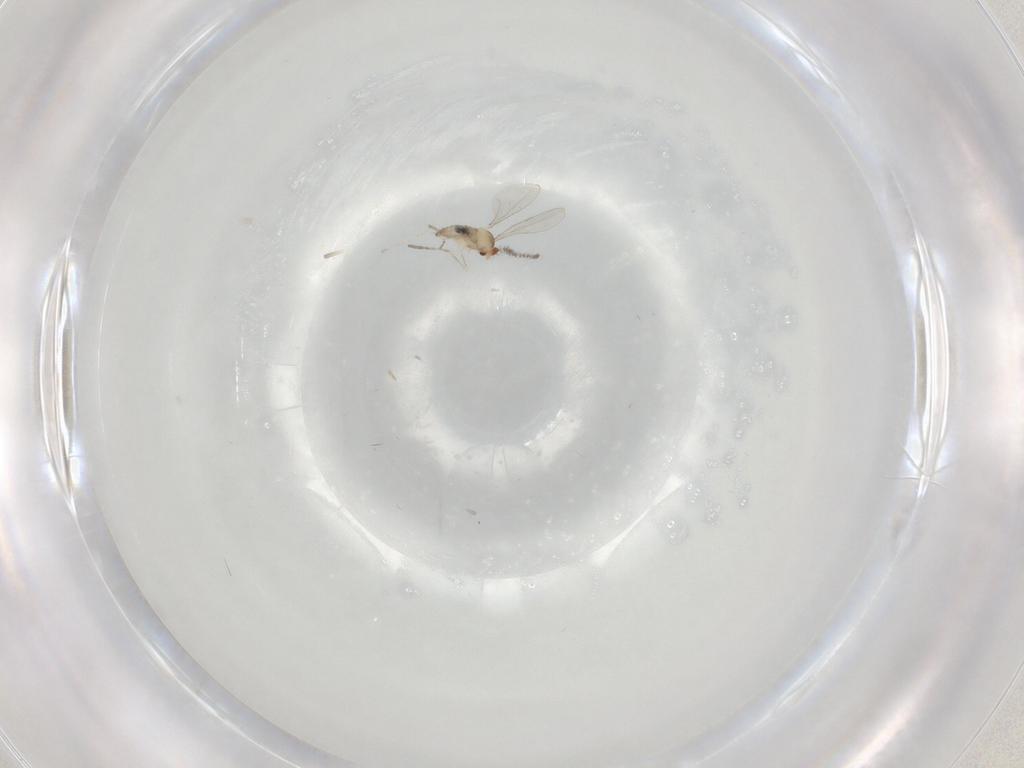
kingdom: Animalia
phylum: Arthropoda
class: Insecta
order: Diptera
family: Cecidomyiidae
